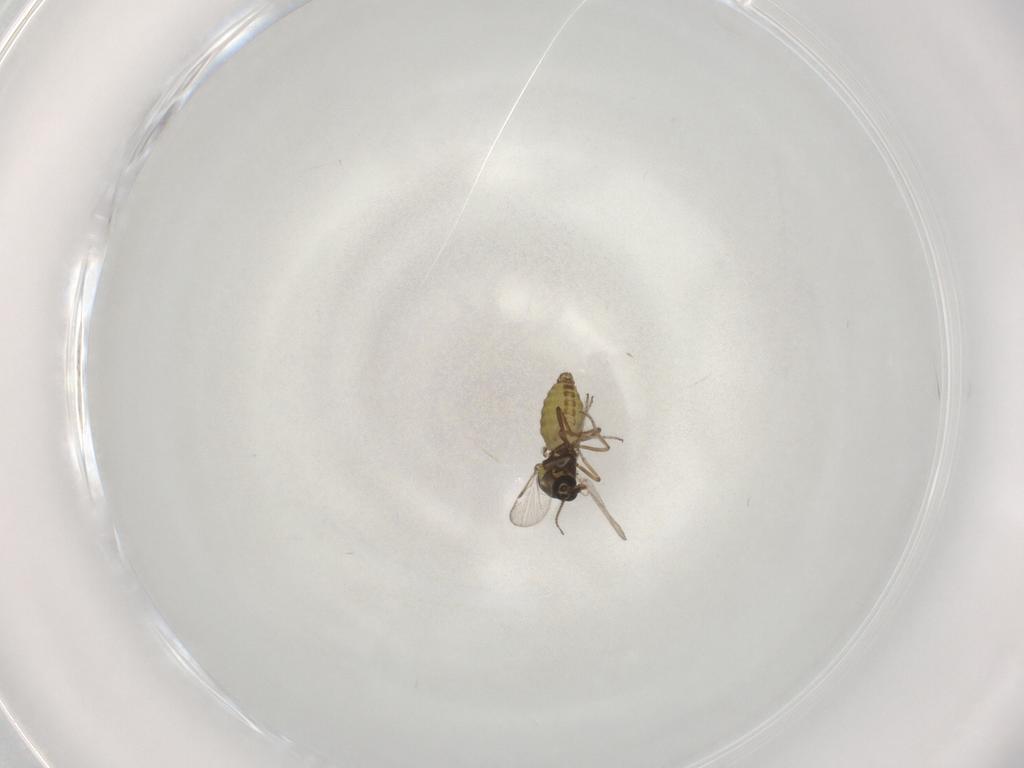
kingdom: Animalia
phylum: Arthropoda
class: Insecta
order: Diptera
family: Ceratopogonidae
